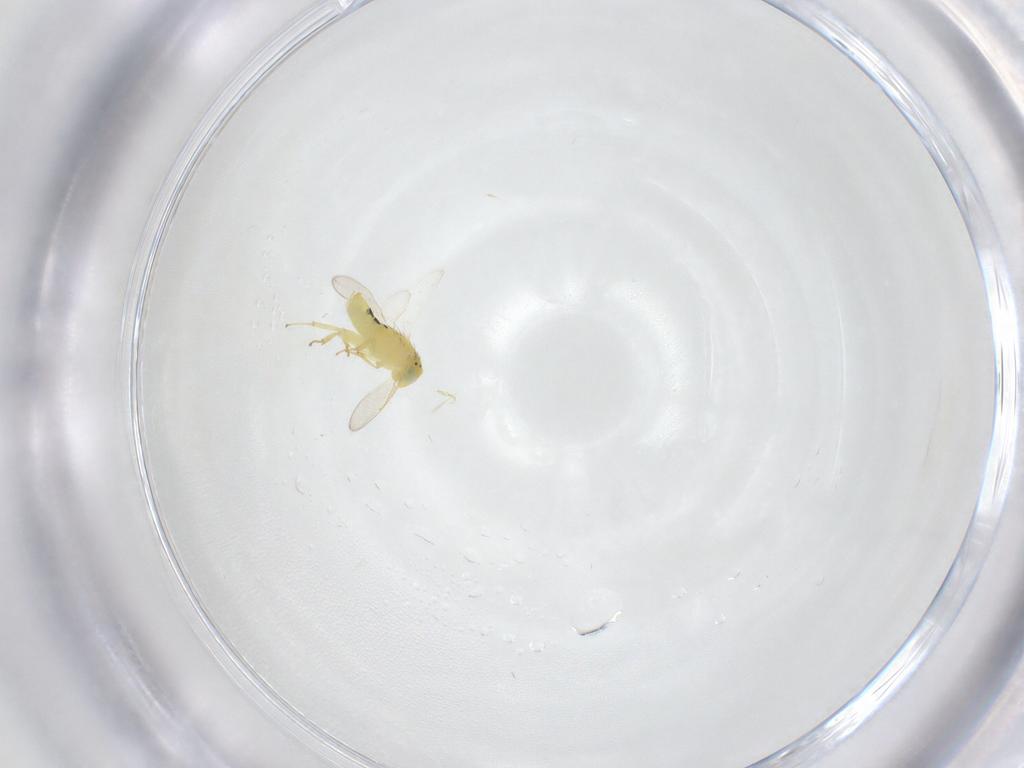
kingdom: Animalia
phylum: Arthropoda
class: Insecta
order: Hymenoptera
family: Aphelinidae
